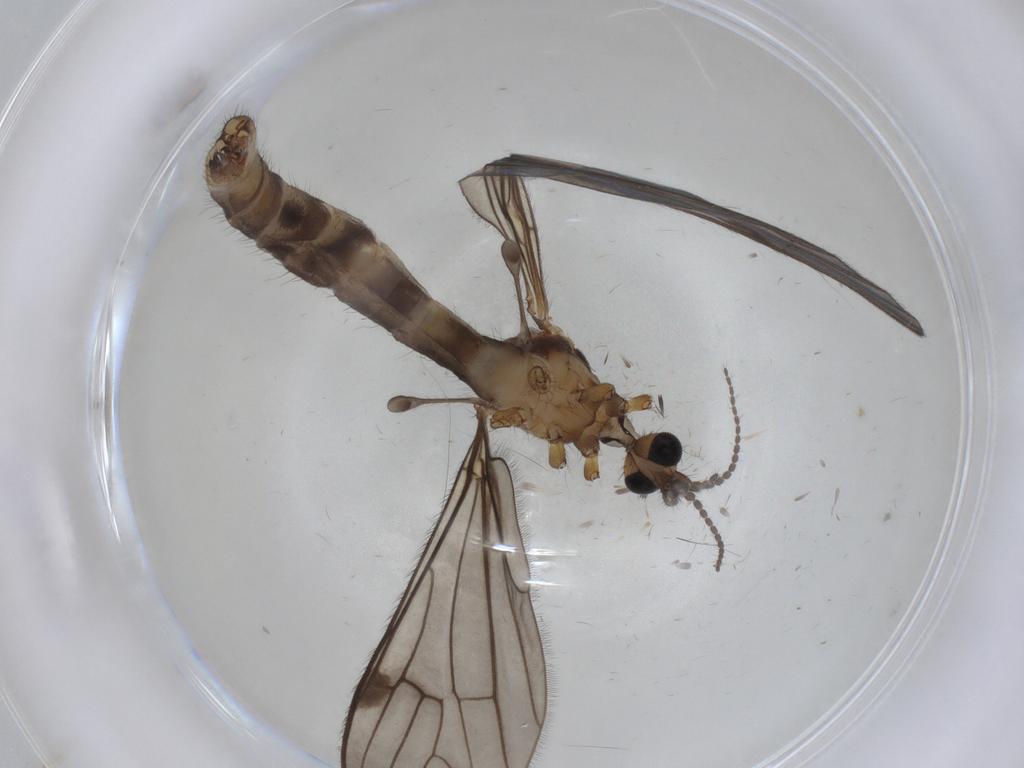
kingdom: Animalia
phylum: Arthropoda
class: Insecta
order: Diptera
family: Limoniidae
